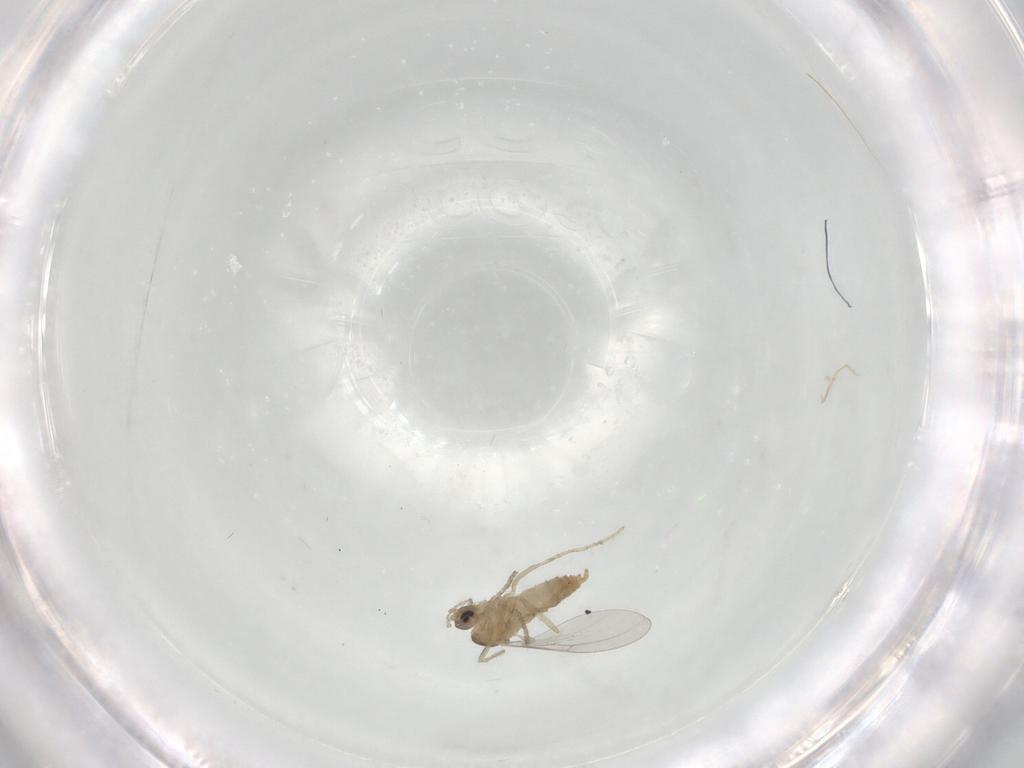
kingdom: Animalia
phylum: Arthropoda
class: Insecta
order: Diptera
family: Cecidomyiidae
